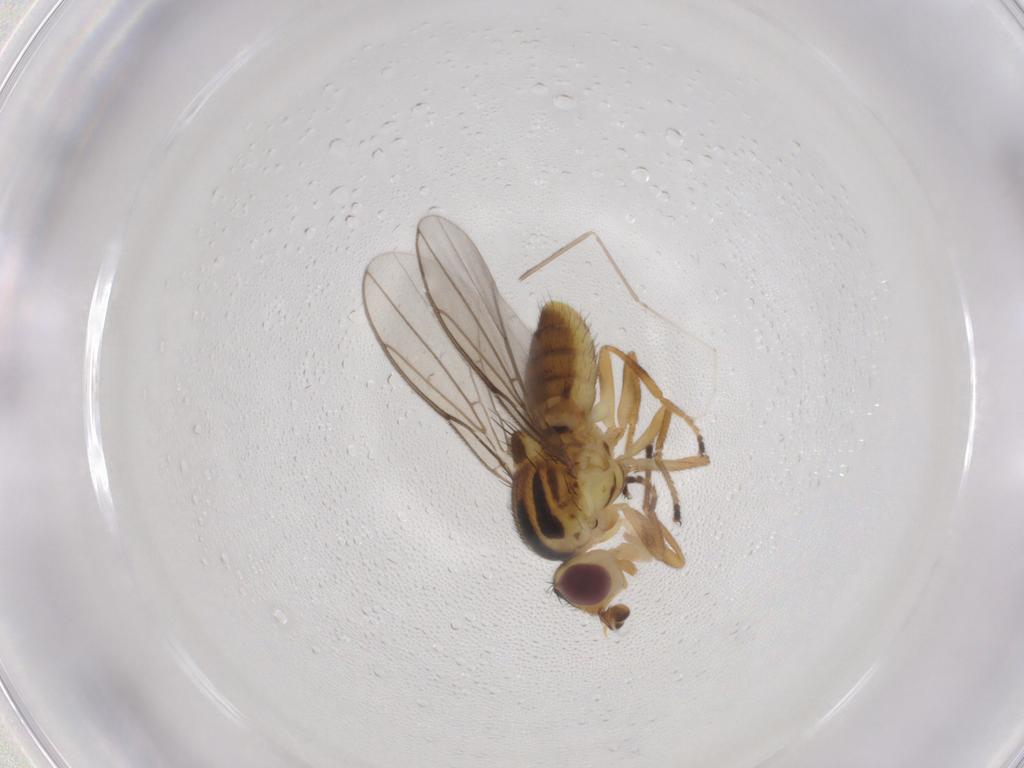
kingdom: Animalia
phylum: Arthropoda
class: Insecta
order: Diptera
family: Chloropidae
